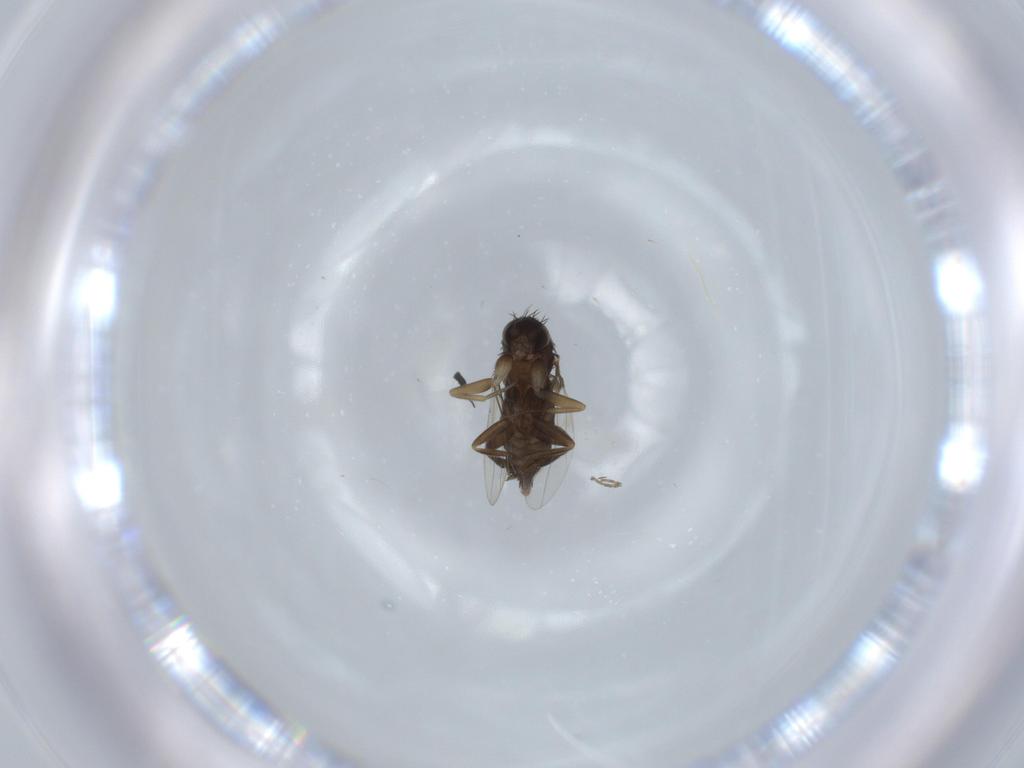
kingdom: Animalia
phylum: Arthropoda
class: Insecta
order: Diptera
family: Phoridae
